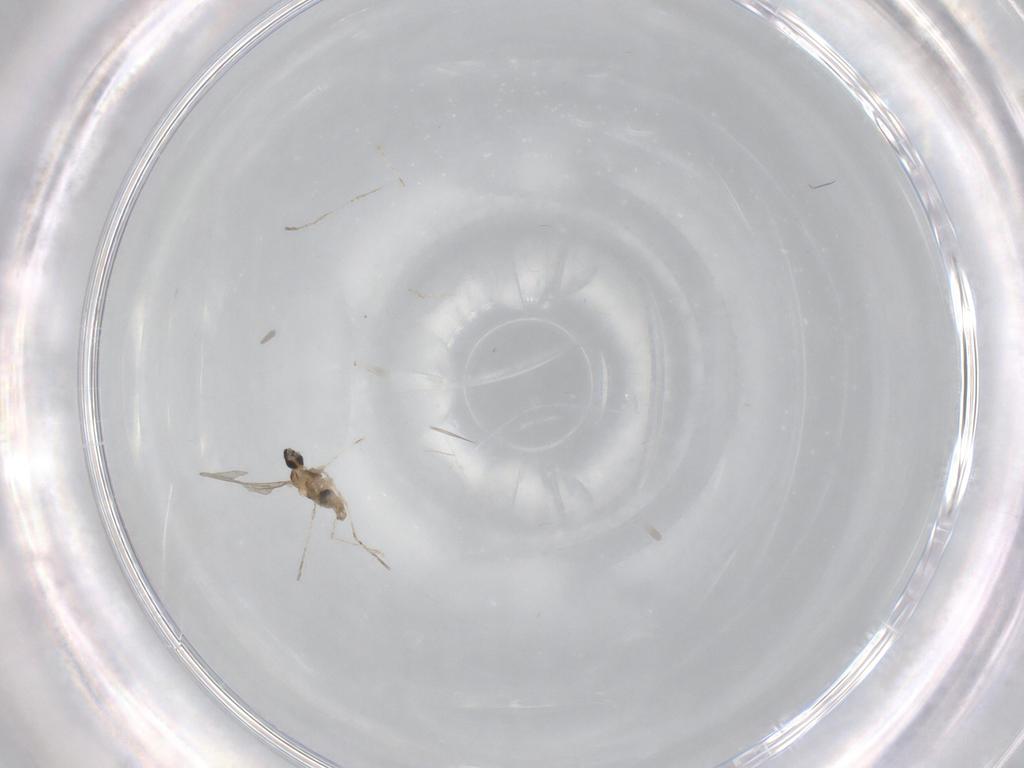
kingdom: Animalia
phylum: Arthropoda
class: Insecta
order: Diptera
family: Cecidomyiidae
